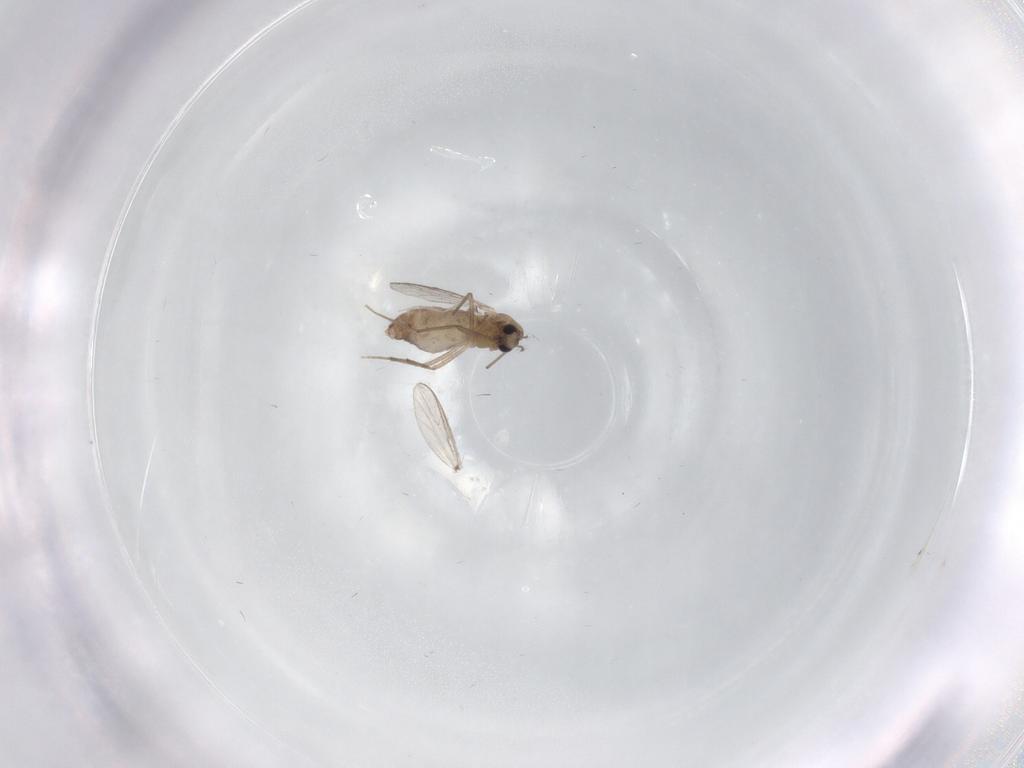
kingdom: Animalia
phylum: Arthropoda
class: Insecta
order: Diptera
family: Chironomidae
